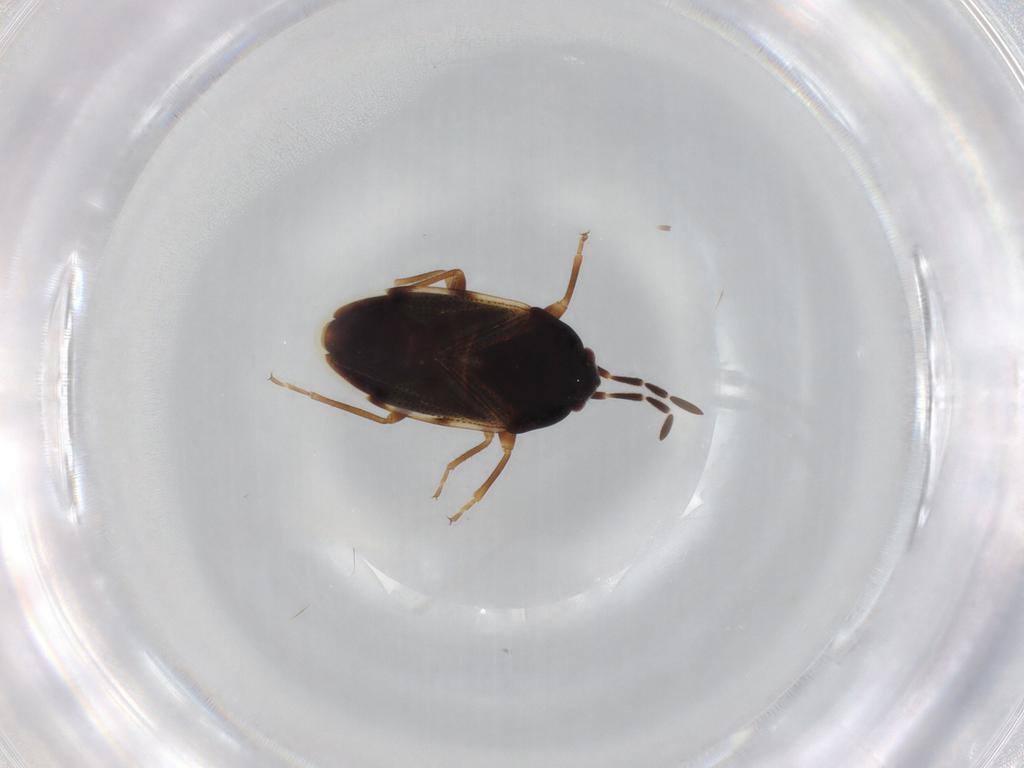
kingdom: Animalia
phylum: Arthropoda
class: Insecta
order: Hemiptera
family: Rhyparochromidae
